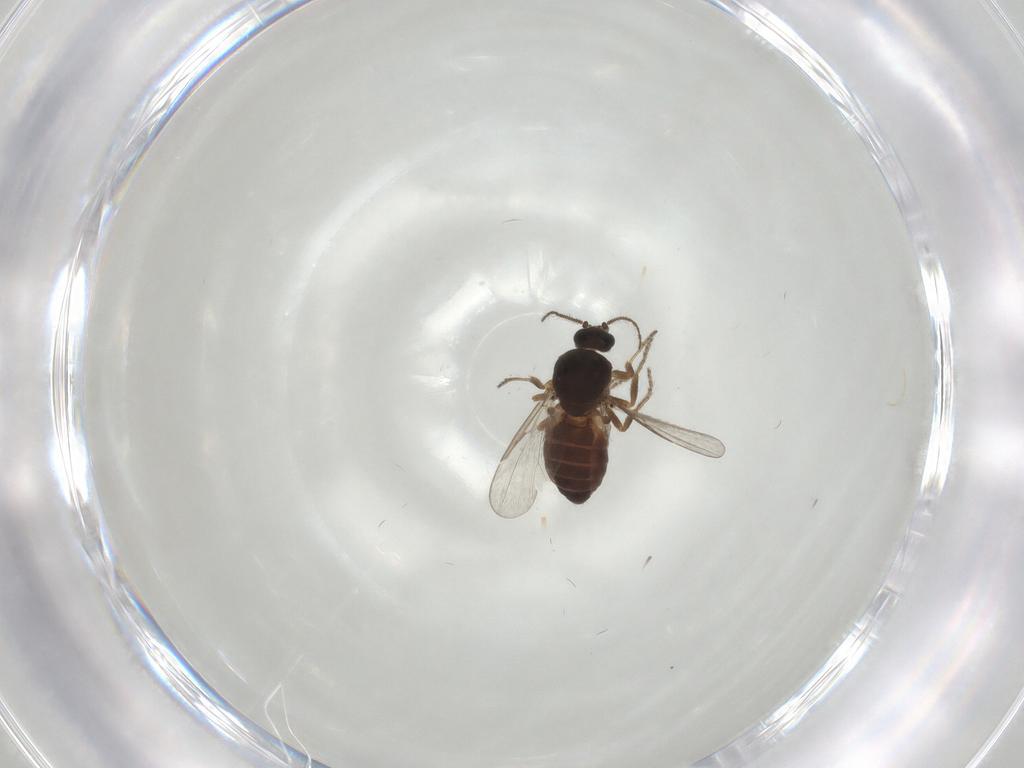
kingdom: Animalia
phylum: Arthropoda
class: Insecta
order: Diptera
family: Ceratopogonidae
